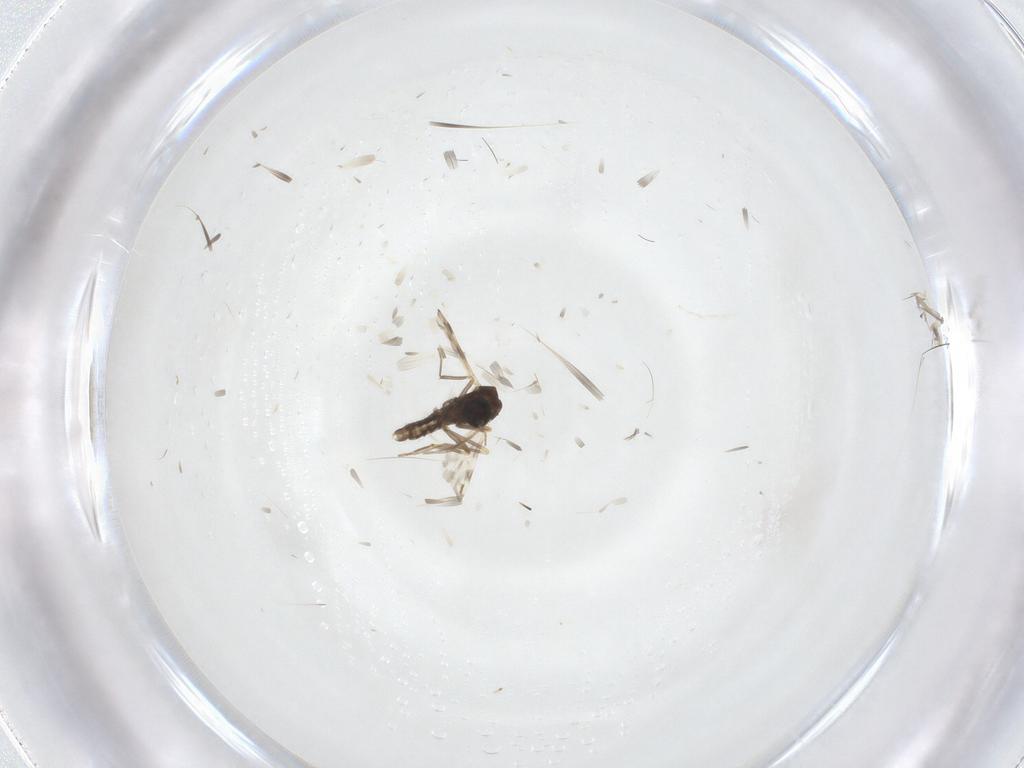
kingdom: Animalia
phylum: Arthropoda
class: Insecta
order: Diptera
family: Ceratopogonidae
